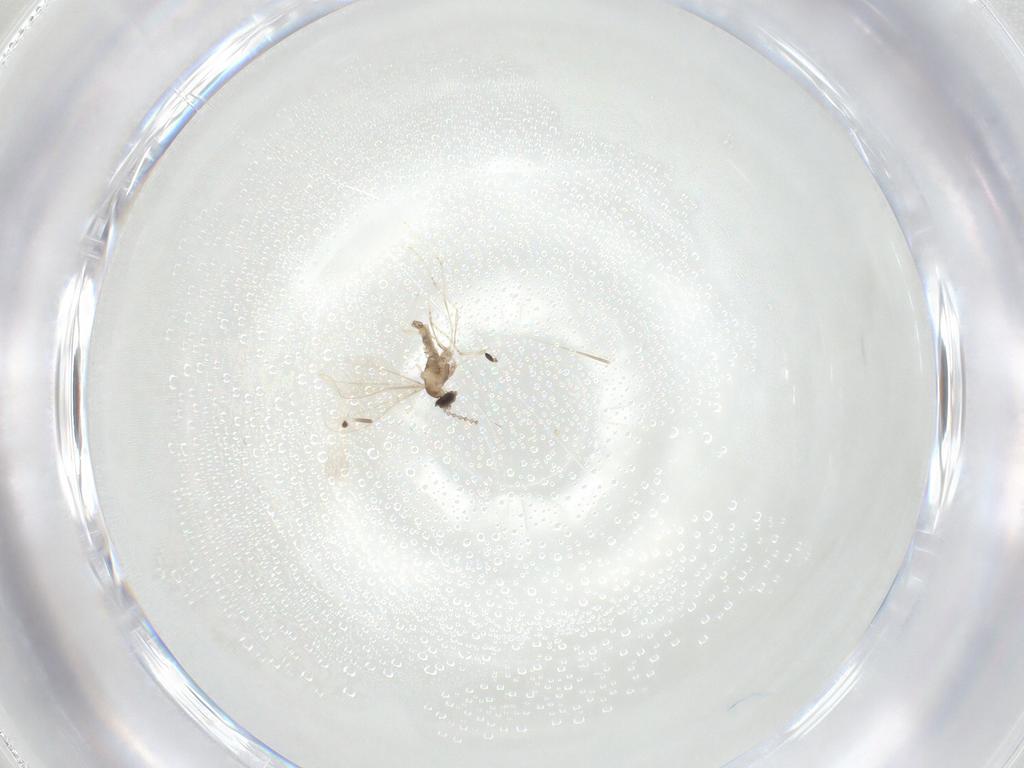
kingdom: Animalia
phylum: Arthropoda
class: Insecta
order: Diptera
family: Cecidomyiidae
